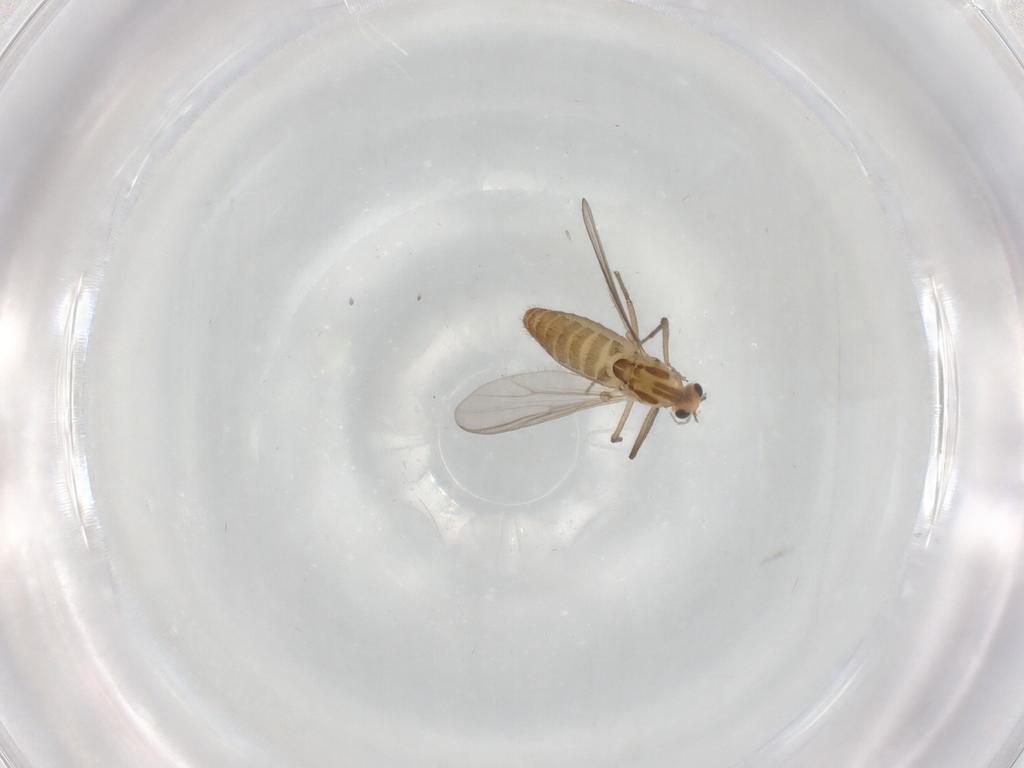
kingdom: Animalia
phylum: Arthropoda
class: Insecta
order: Diptera
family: Chironomidae
